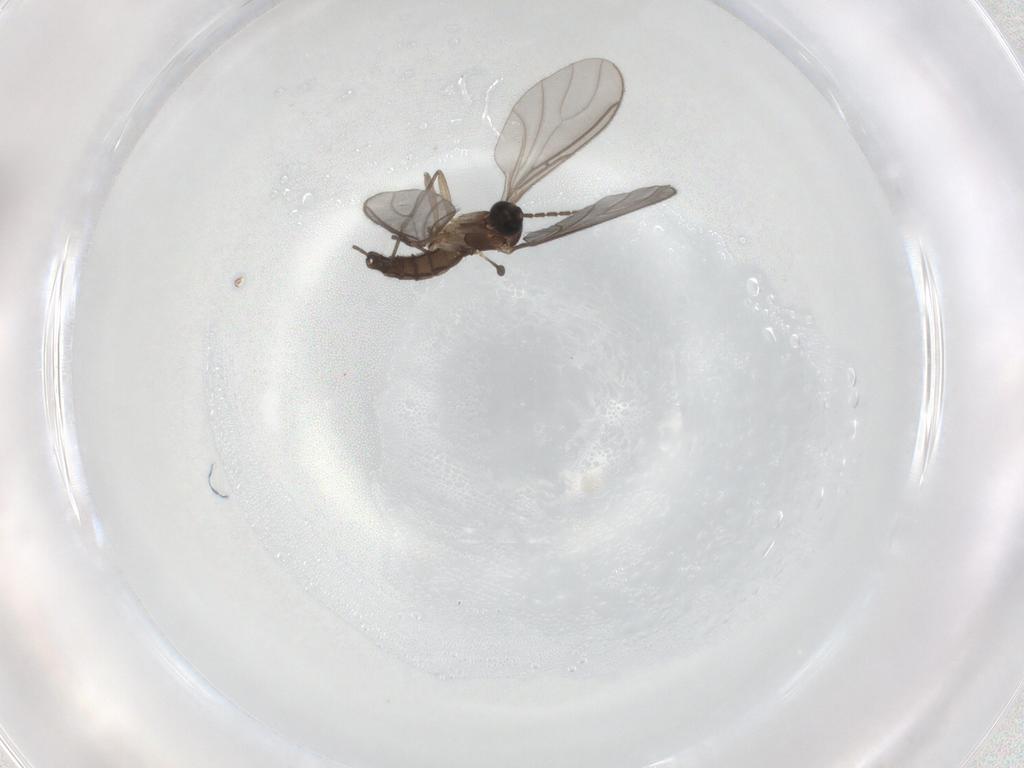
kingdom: Animalia
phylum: Arthropoda
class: Insecta
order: Diptera
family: Sciaridae
